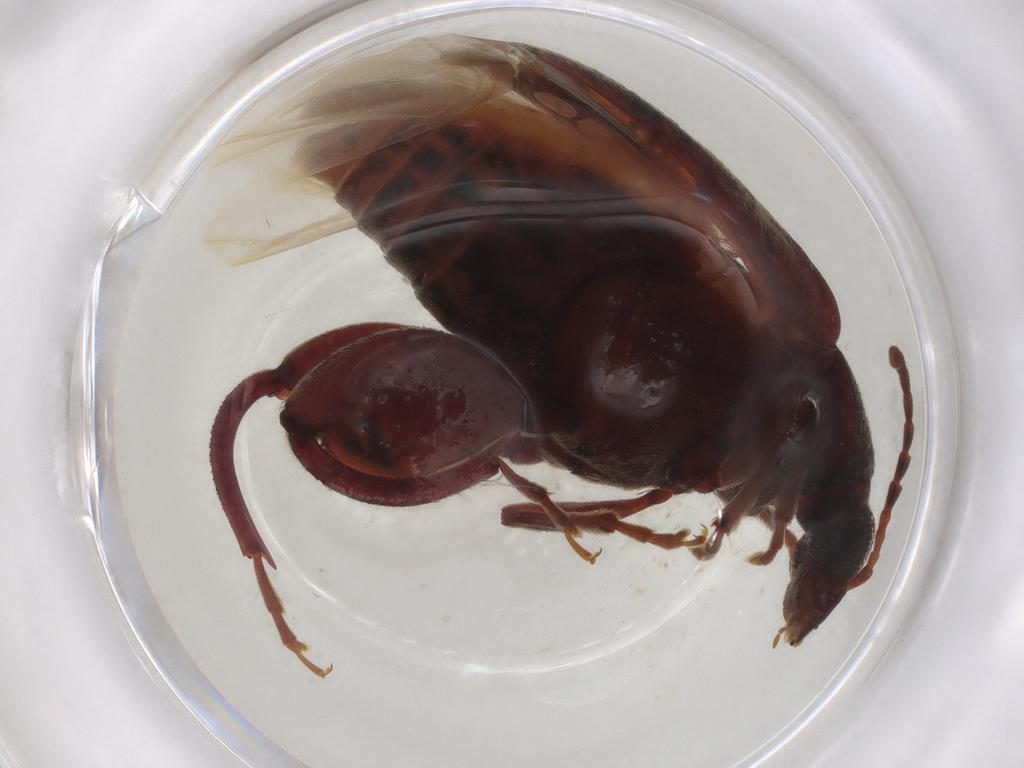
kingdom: Animalia
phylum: Arthropoda
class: Insecta
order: Coleoptera
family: Chrysomelidae
